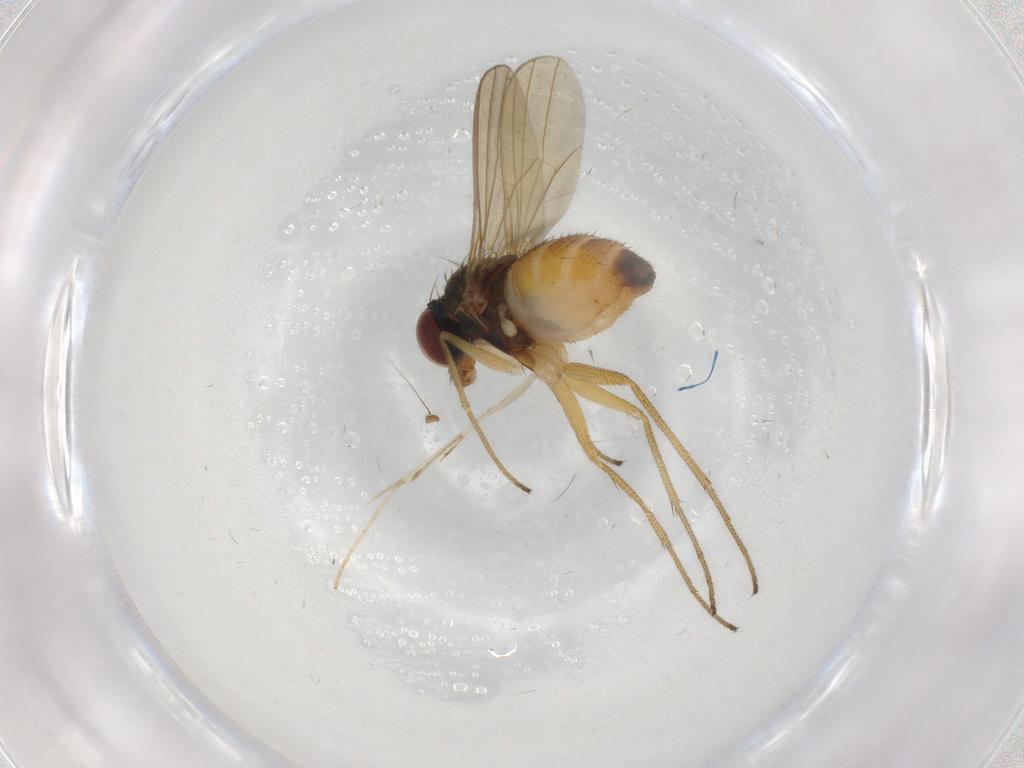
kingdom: Animalia
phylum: Arthropoda
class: Insecta
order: Diptera
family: Dolichopodidae
